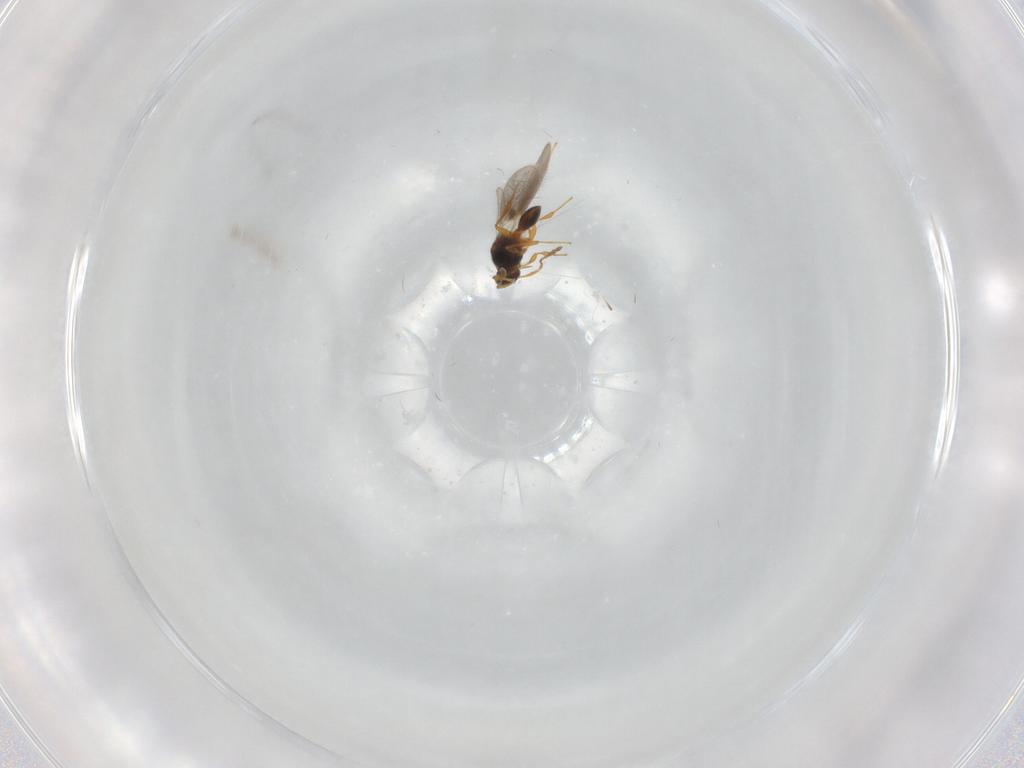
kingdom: Animalia
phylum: Arthropoda
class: Insecta
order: Hymenoptera
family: Platygastridae
